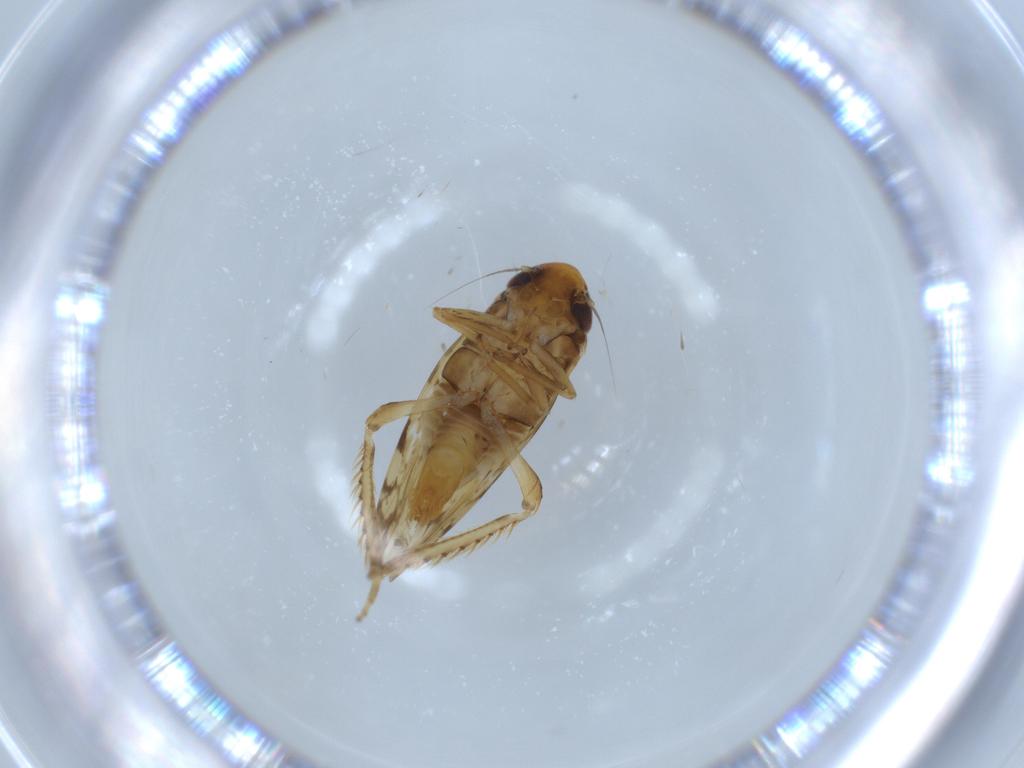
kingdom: Animalia
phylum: Arthropoda
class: Insecta
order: Hemiptera
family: Cicadellidae
